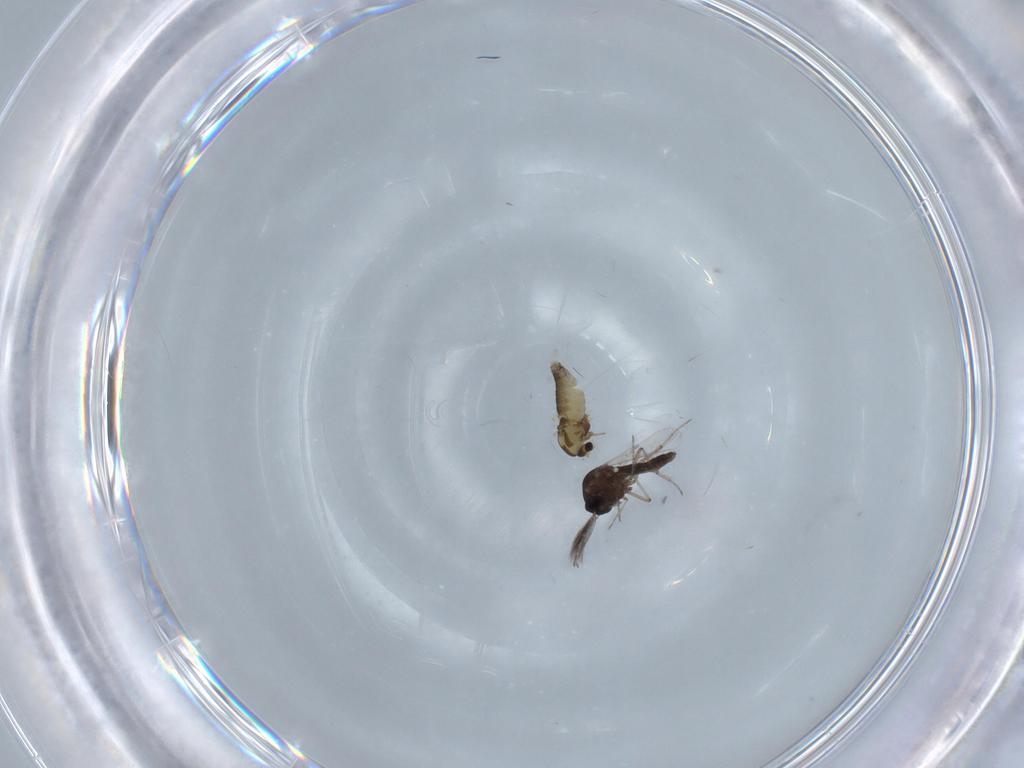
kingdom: Animalia
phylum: Arthropoda
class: Insecta
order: Diptera
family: Chironomidae
